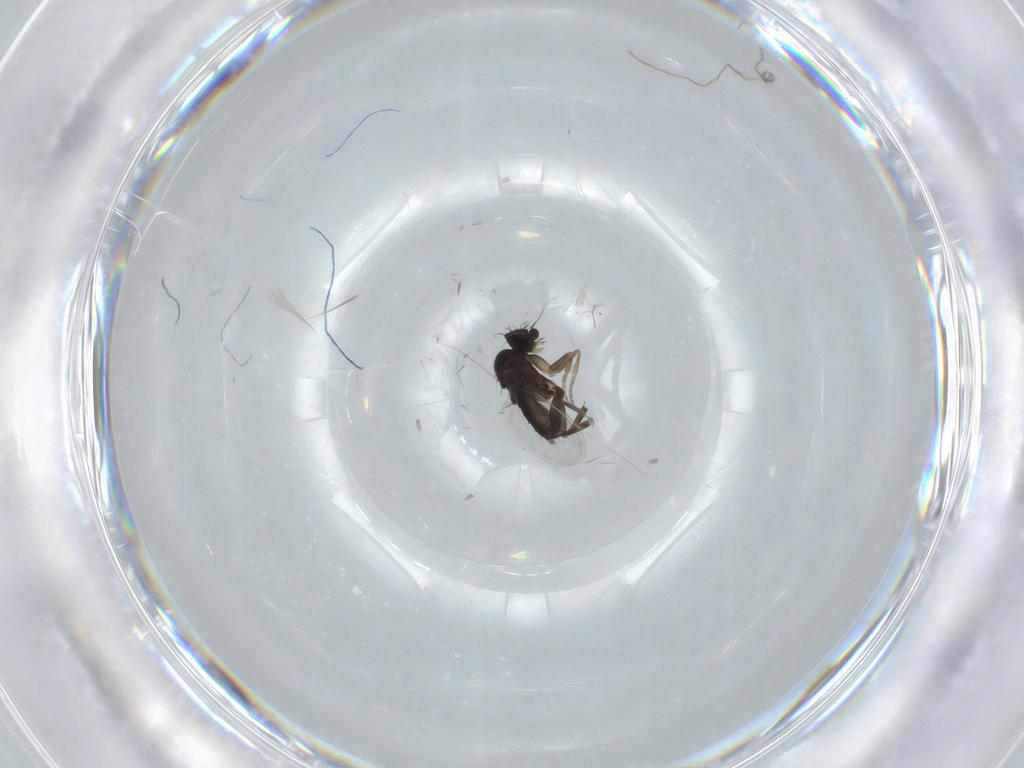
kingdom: Animalia
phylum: Arthropoda
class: Insecta
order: Diptera
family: Phoridae
